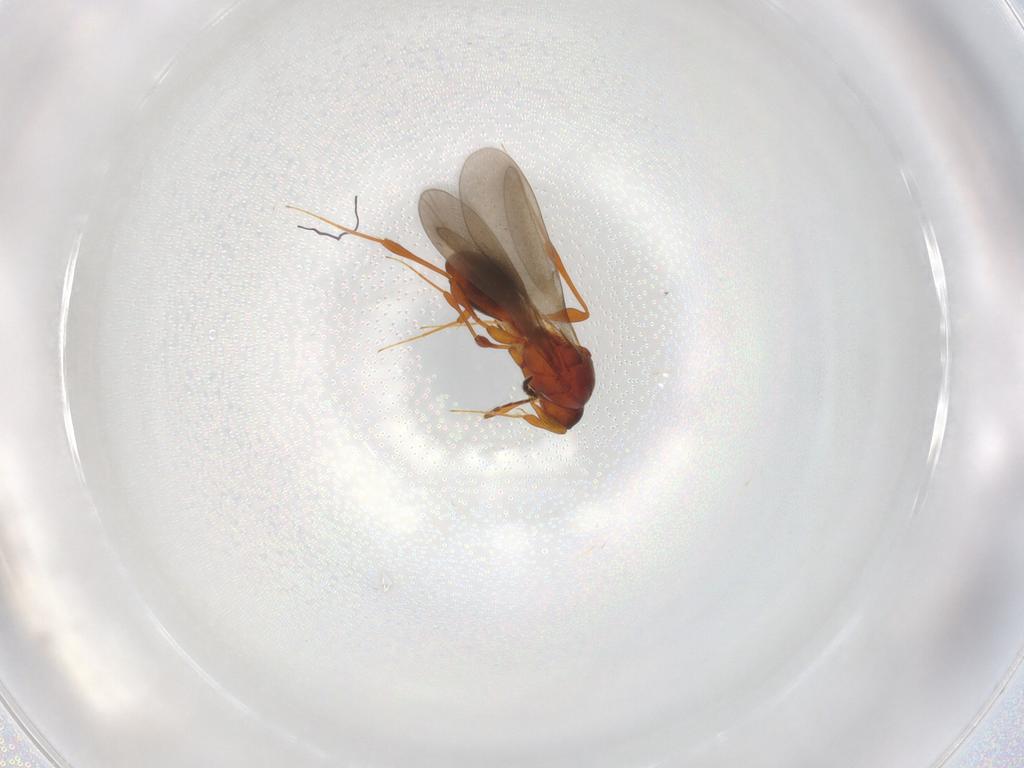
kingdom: Animalia
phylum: Arthropoda
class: Insecta
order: Hymenoptera
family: Platygastridae
